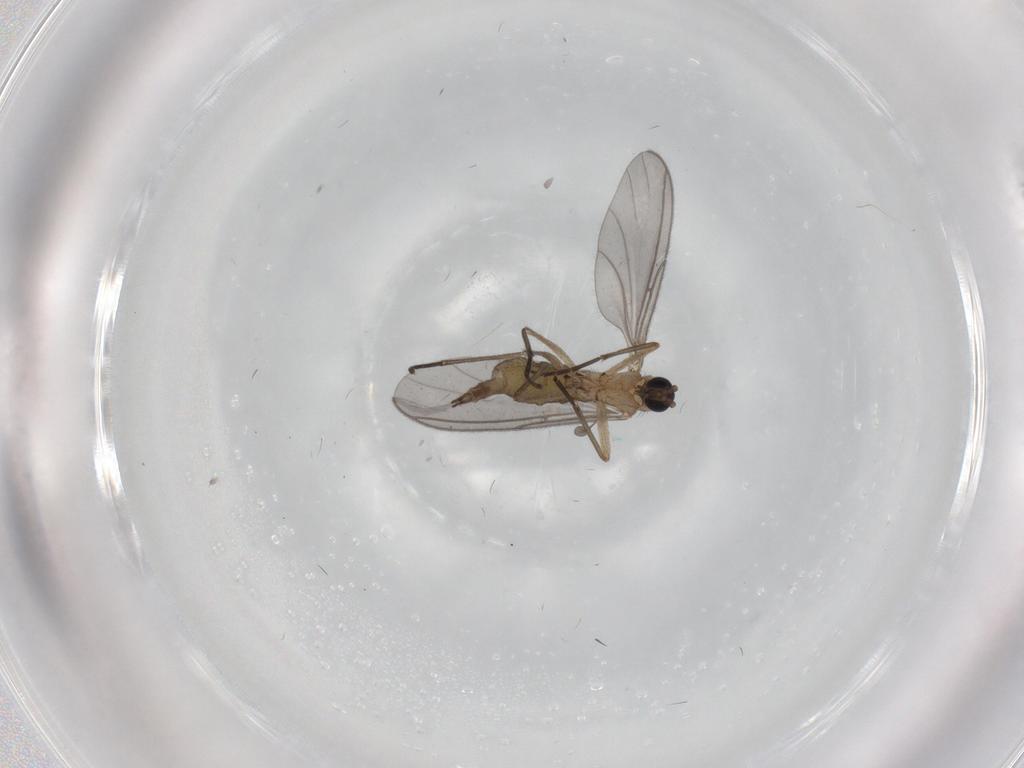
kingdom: Animalia
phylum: Arthropoda
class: Insecta
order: Diptera
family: Sciaridae
